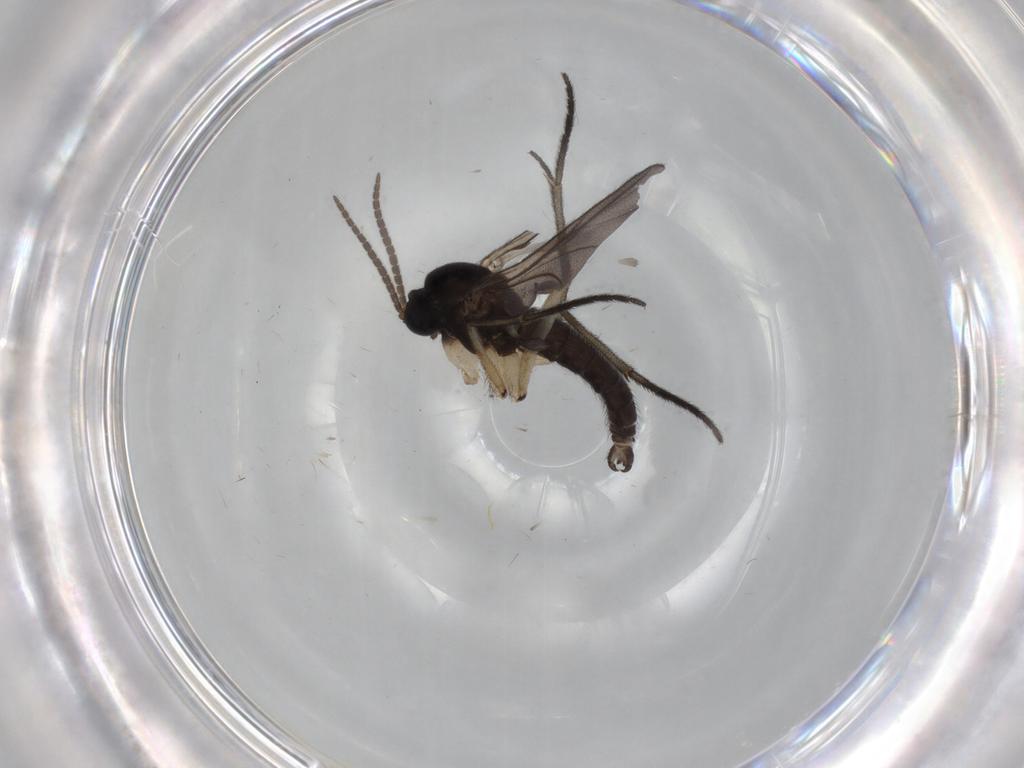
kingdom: Animalia
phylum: Arthropoda
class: Insecta
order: Diptera
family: Sciaridae
